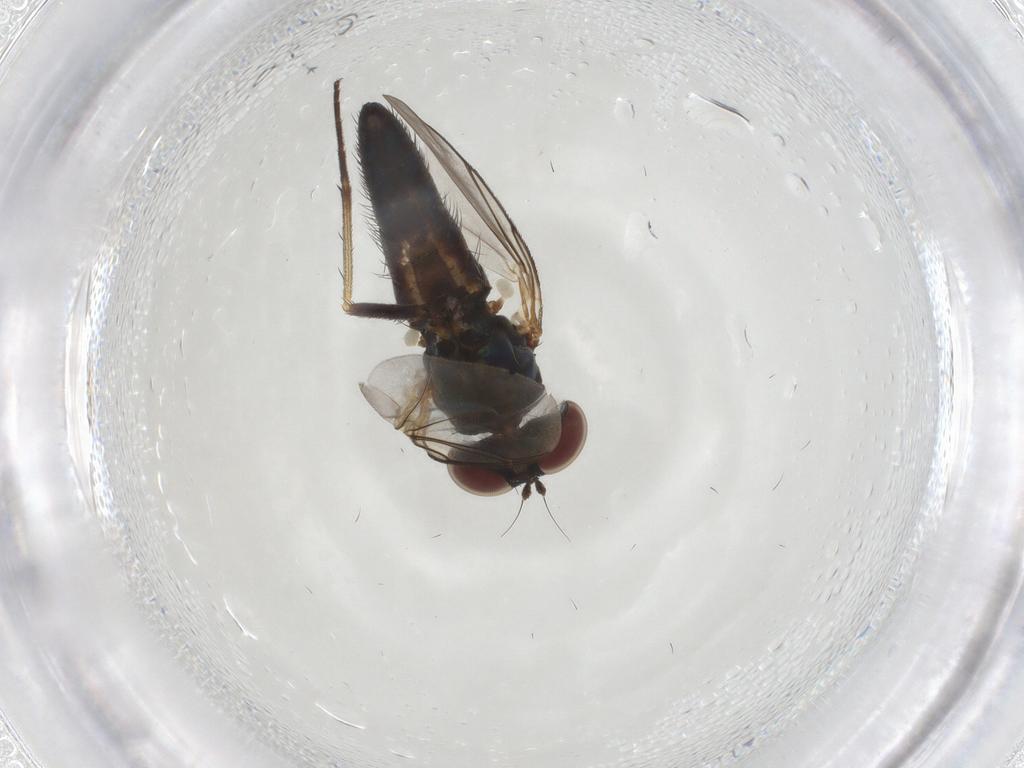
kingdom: Animalia
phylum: Arthropoda
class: Insecta
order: Diptera
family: Dolichopodidae
